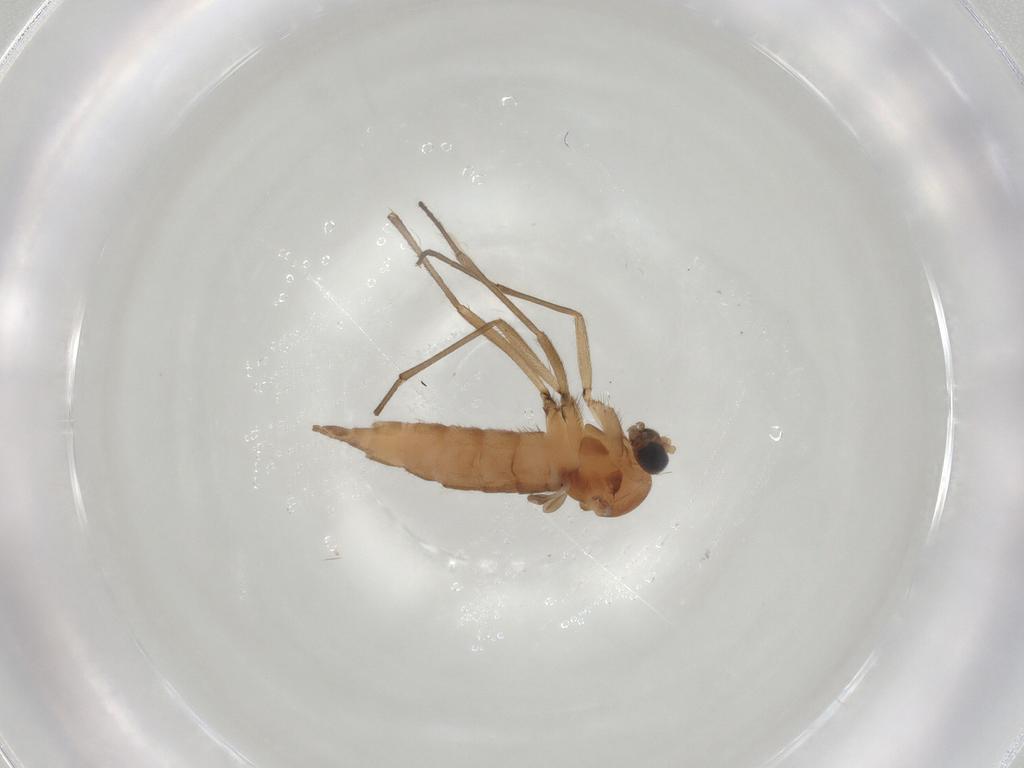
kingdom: Animalia
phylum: Arthropoda
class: Insecta
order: Diptera
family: Sciaridae
